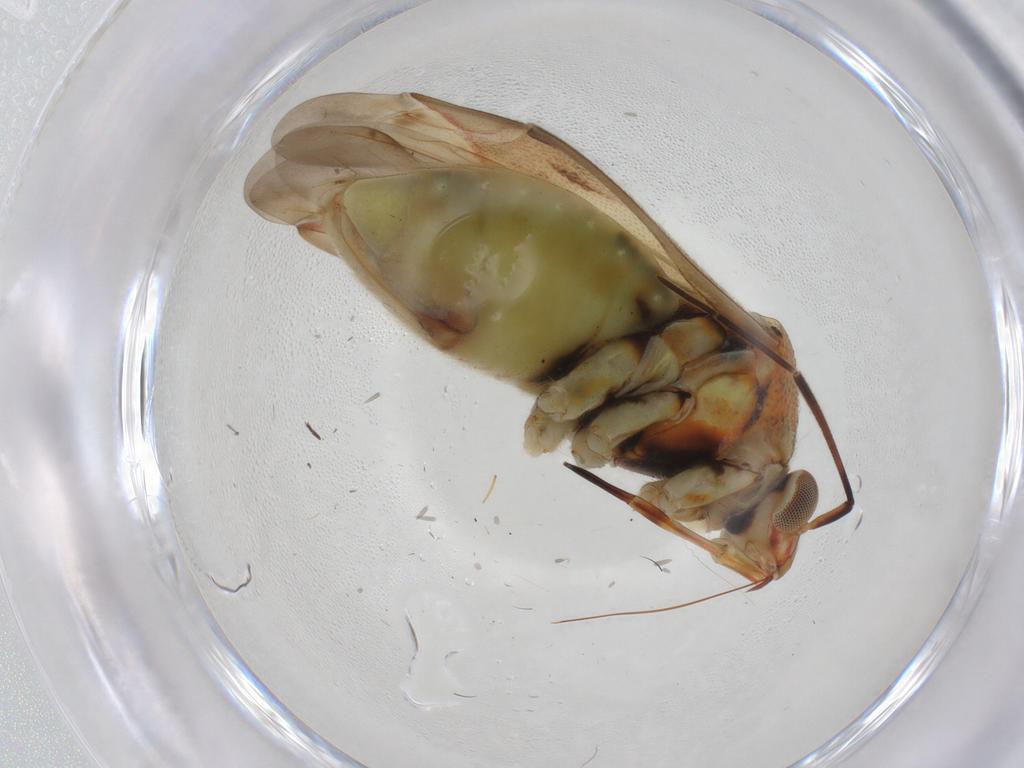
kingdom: Animalia
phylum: Arthropoda
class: Insecta
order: Hemiptera
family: Miridae
